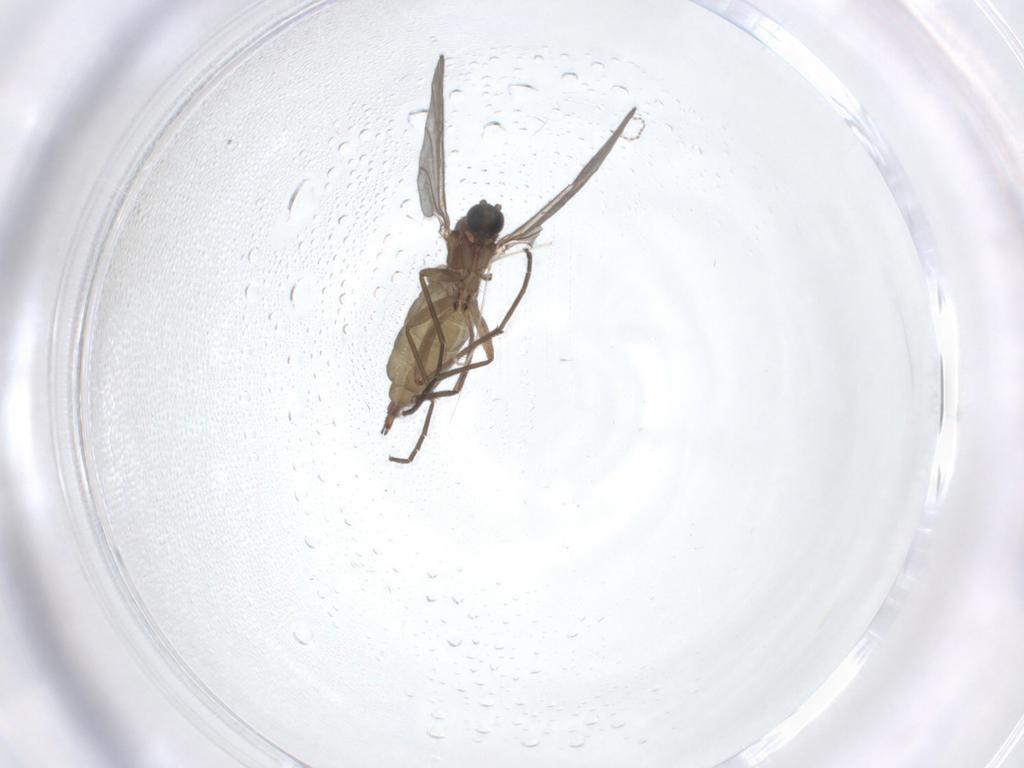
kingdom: Animalia
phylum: Arthropoda
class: Insecta
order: Diptera
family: Cecidomyiidae
